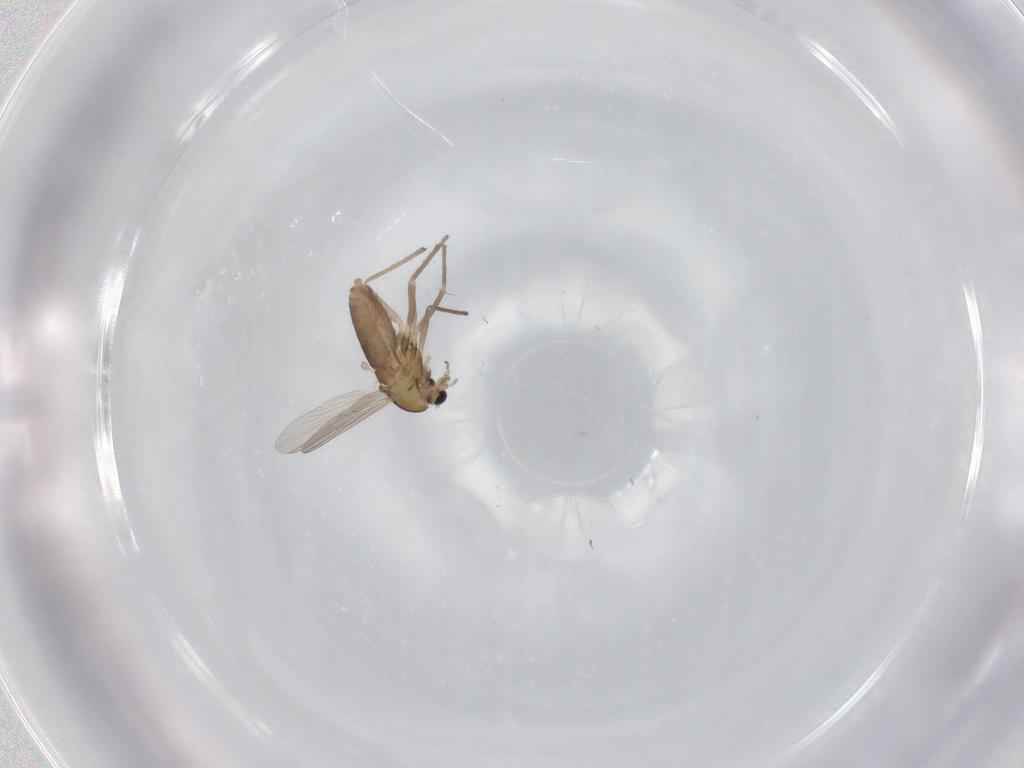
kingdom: Animalia
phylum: Arthropoda
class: Insecta
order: Diptera
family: Chironomidae
